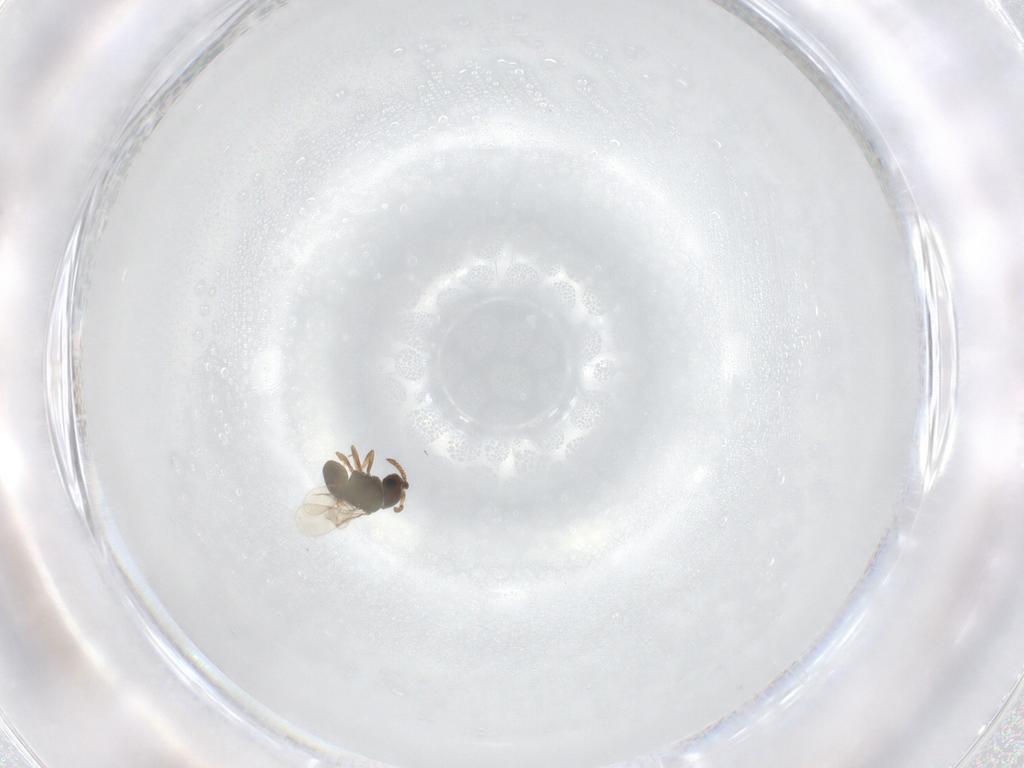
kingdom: Animalia
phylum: Arthropoda
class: Insecta
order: Hymenoptera
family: Scelionidae
